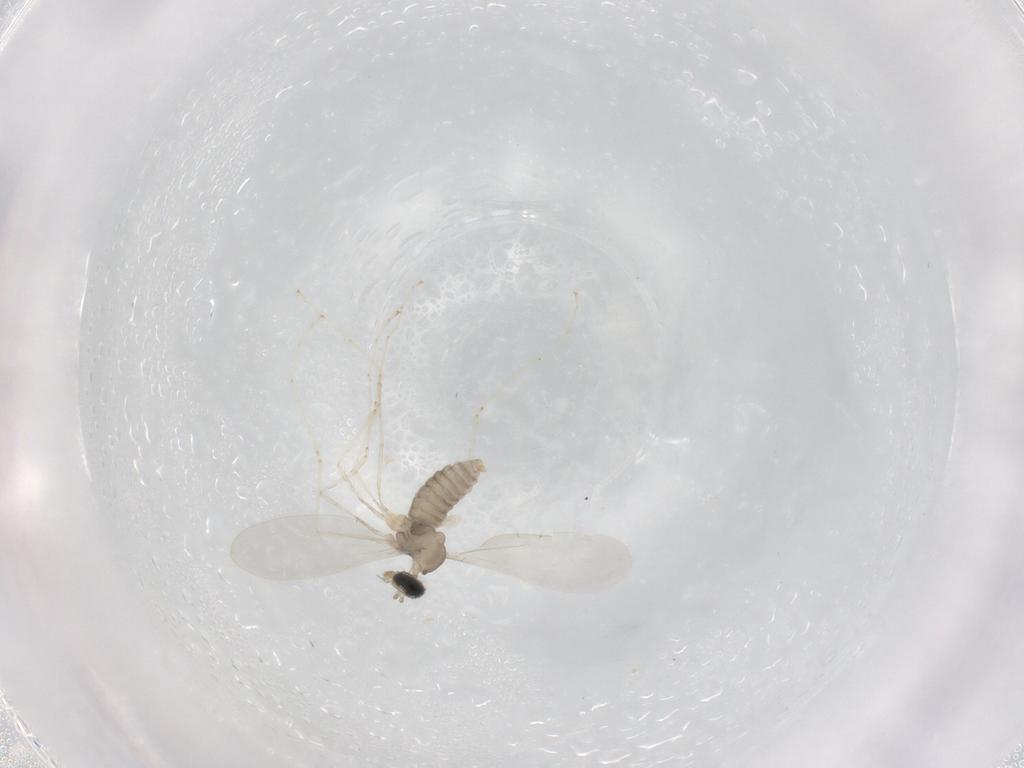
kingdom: Animalia
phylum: Arthropoda
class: Insecta
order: Diptera
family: Cecidomyiidae
